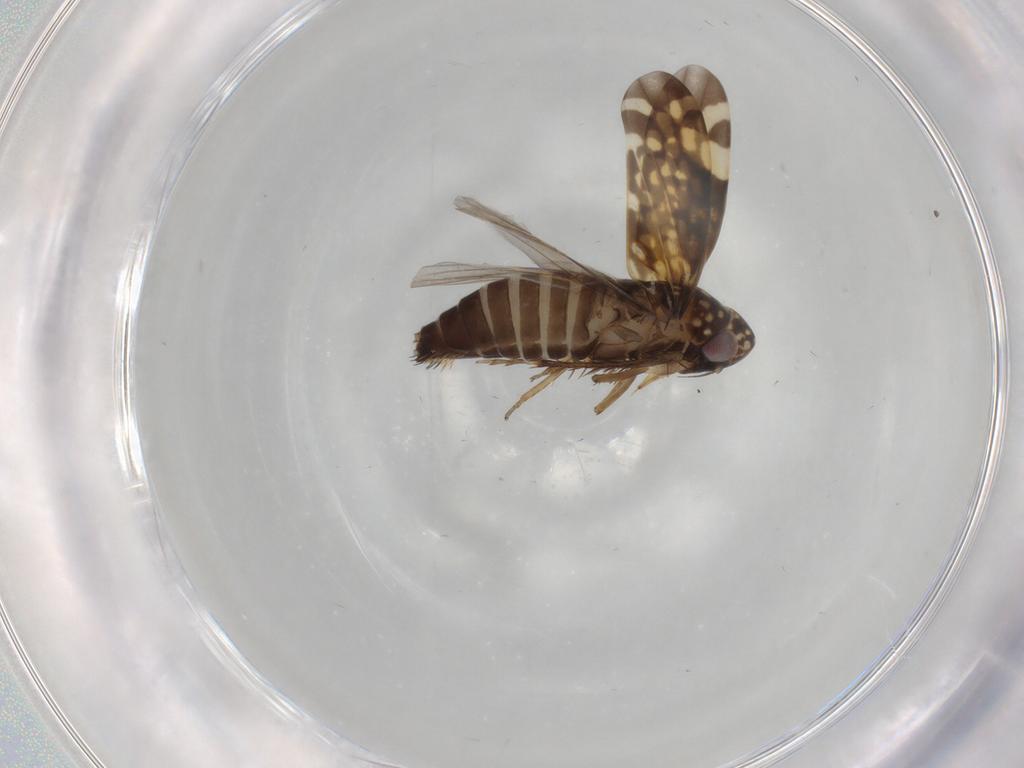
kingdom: Animalia
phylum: Arthropoda
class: Insecta
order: Hemiptera
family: Cicadellidae
